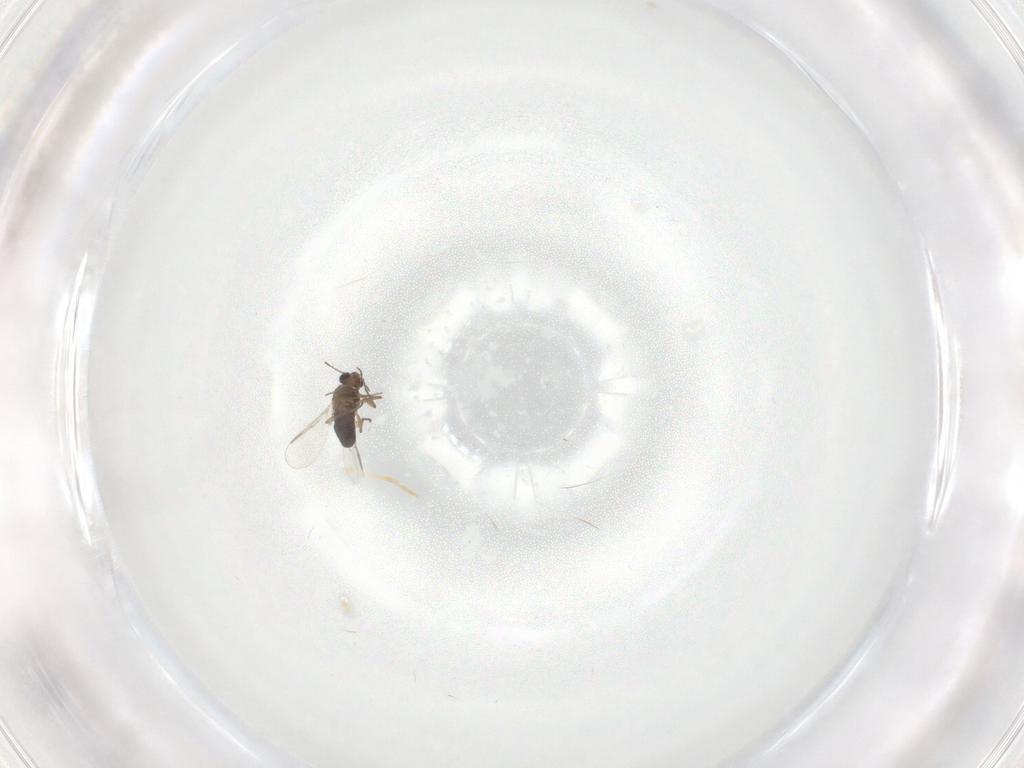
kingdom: Animalia
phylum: Arthropoda
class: Insecta
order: Diptera
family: Chironomidae
